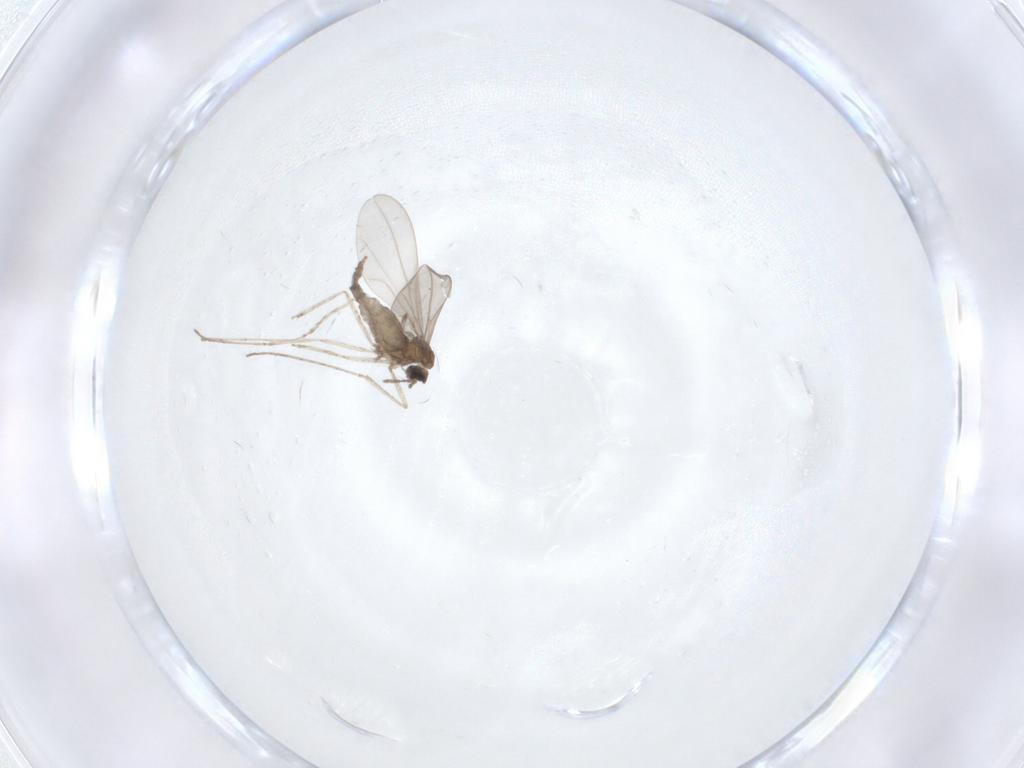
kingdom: Animalia
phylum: Arthropoda
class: Insecta
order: Diptera
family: Cecidomyiidae
